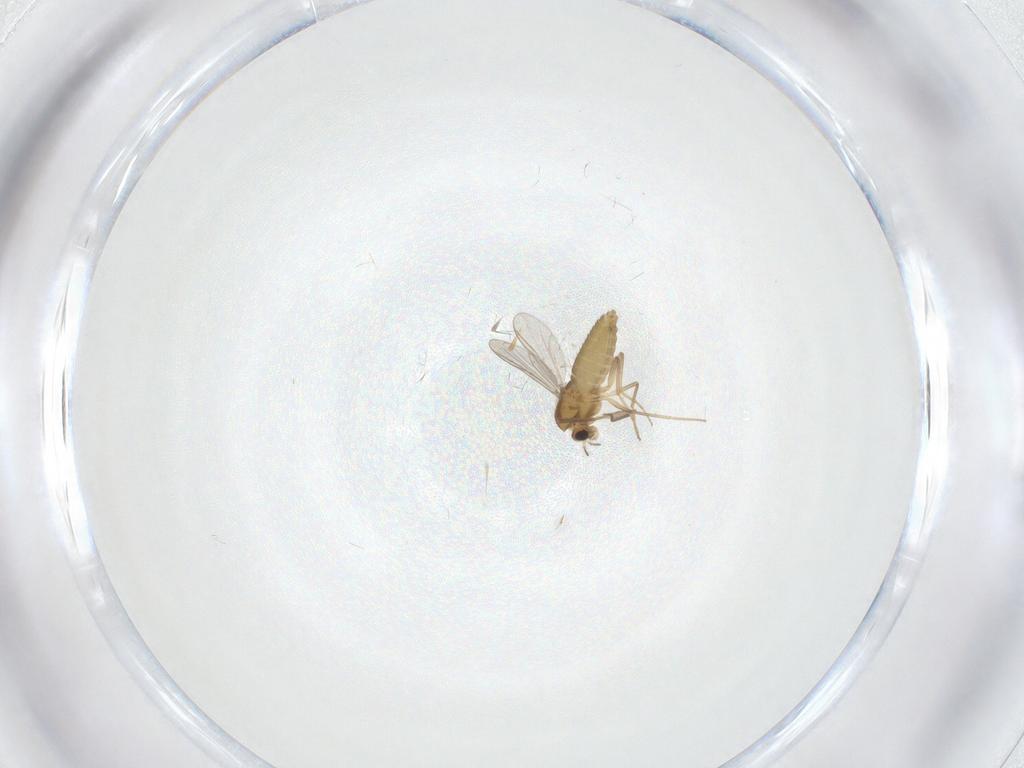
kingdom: Animalia
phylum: Arthropoda
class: Insecta
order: Diptera
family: Chironomidae
